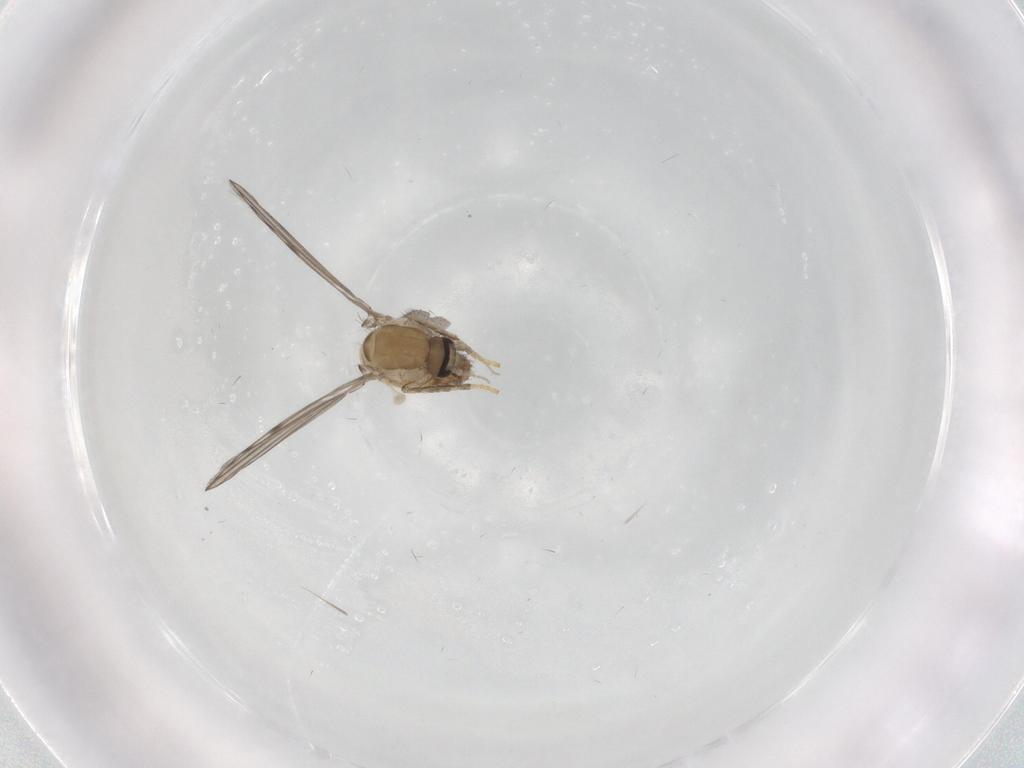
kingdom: Animalia
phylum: Arthropoda
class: Insecta
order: Diptera
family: Psychodidae
